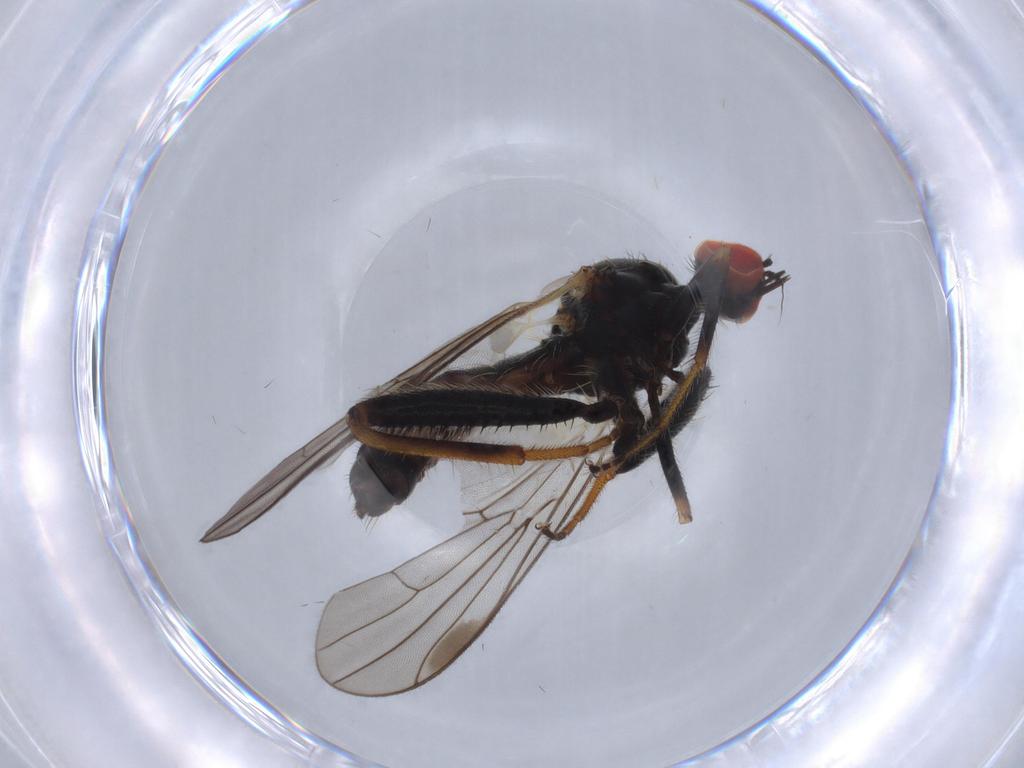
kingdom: Animalia
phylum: Arthropoda
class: Insecta
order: Diptera
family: Hybotidae
